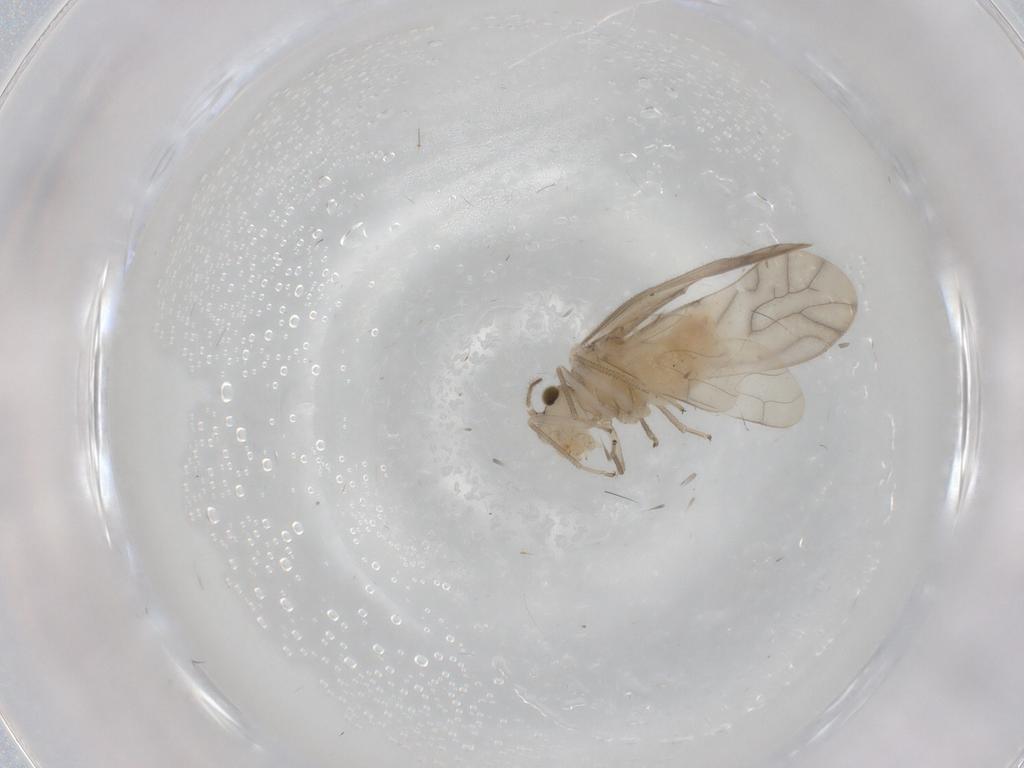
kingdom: Animalia
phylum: Arthropoda
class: Insecta
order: Psocodea
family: Caeciliusidae
